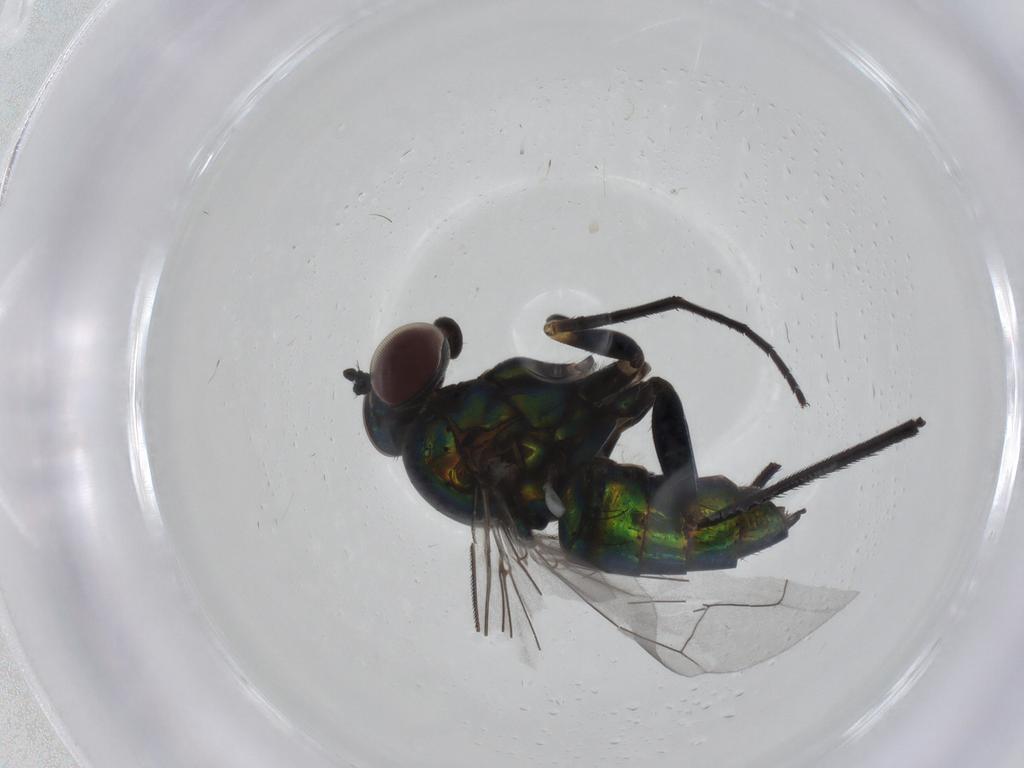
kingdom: Animalia
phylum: Arthropoda
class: Insecta
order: Diptera
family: Dolichopodidae
